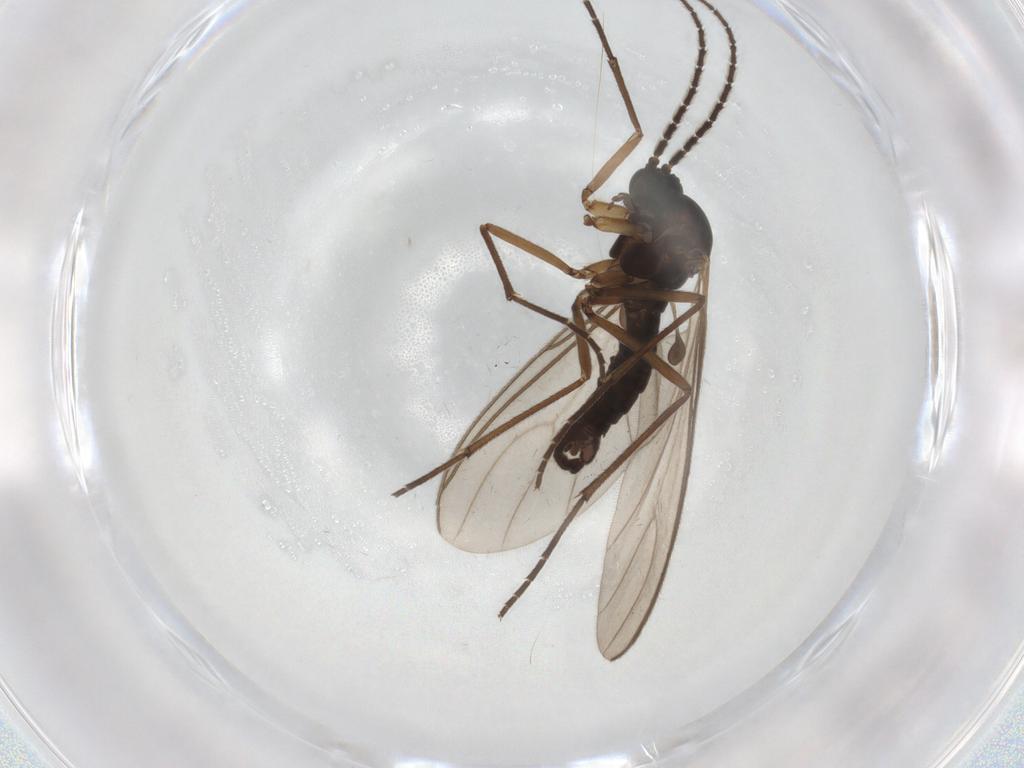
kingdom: Animalia
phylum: Arthropoda
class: Insecta
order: Diptera
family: Sciaridae
